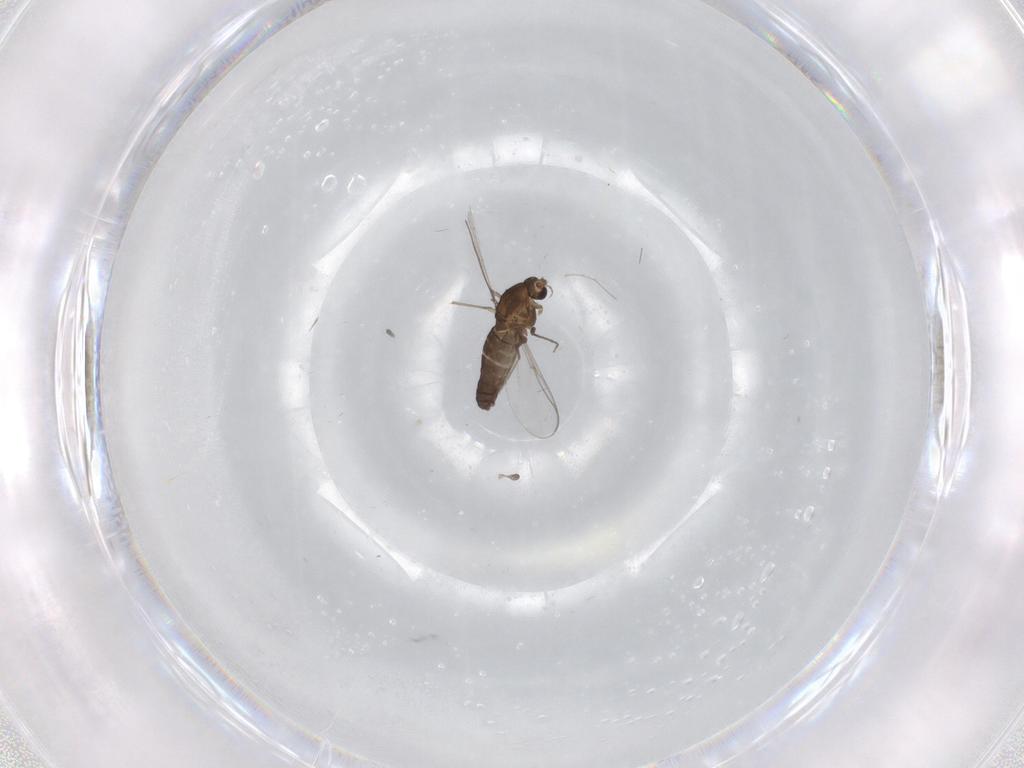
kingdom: Animalia
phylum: Arthropoda
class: Insecta
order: Diptera
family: Chironomidae
